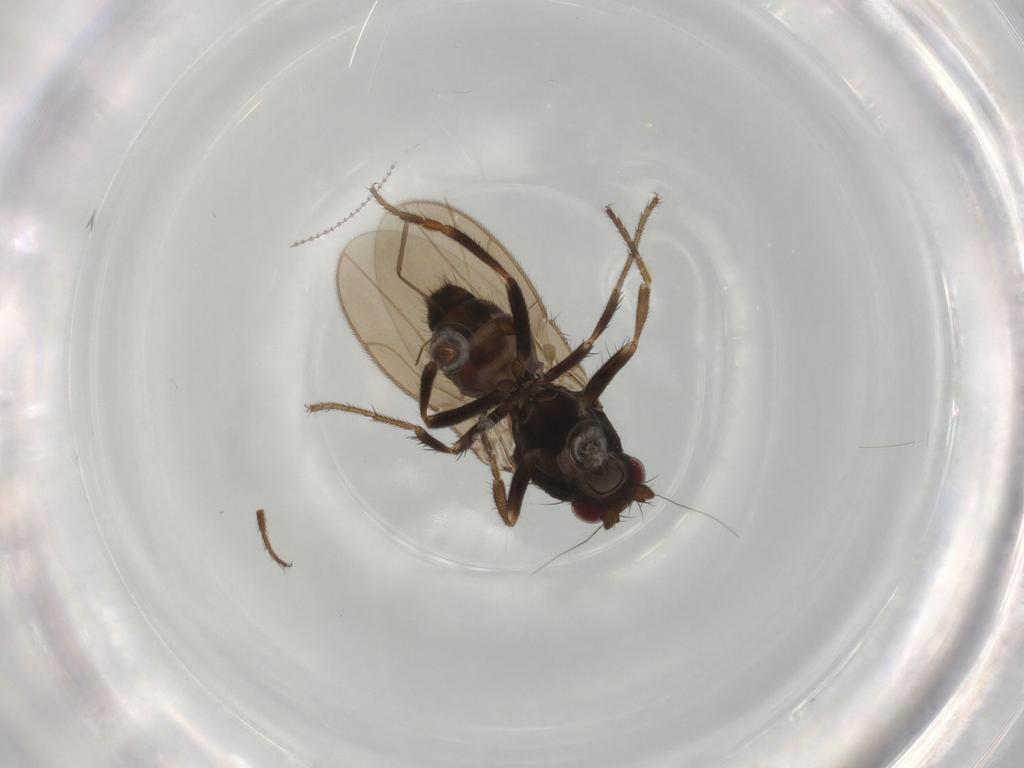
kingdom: Animalia
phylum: Arthropoda
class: Insecta
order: Diptera
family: Sphaeroceridae
